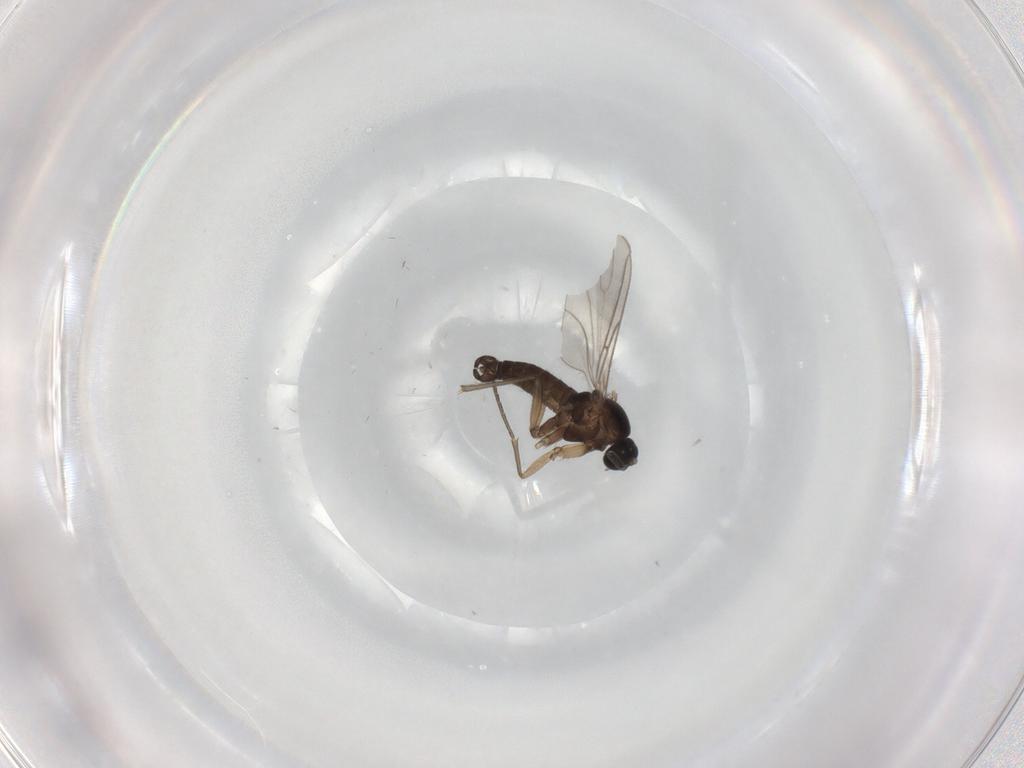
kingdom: Animalia
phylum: Arthropoda
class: Insecta
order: Diptera
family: Sciaridae
